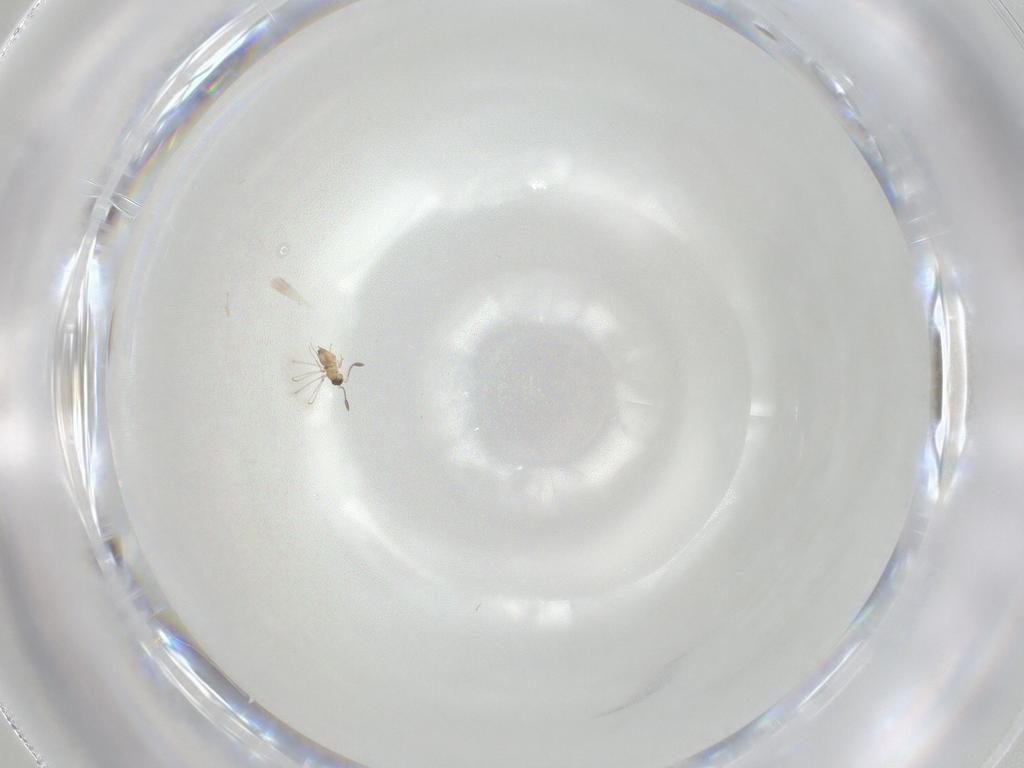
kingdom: Animalia
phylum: Arthropoda
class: Insecta
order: Hymenoptera
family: Mymaridae
